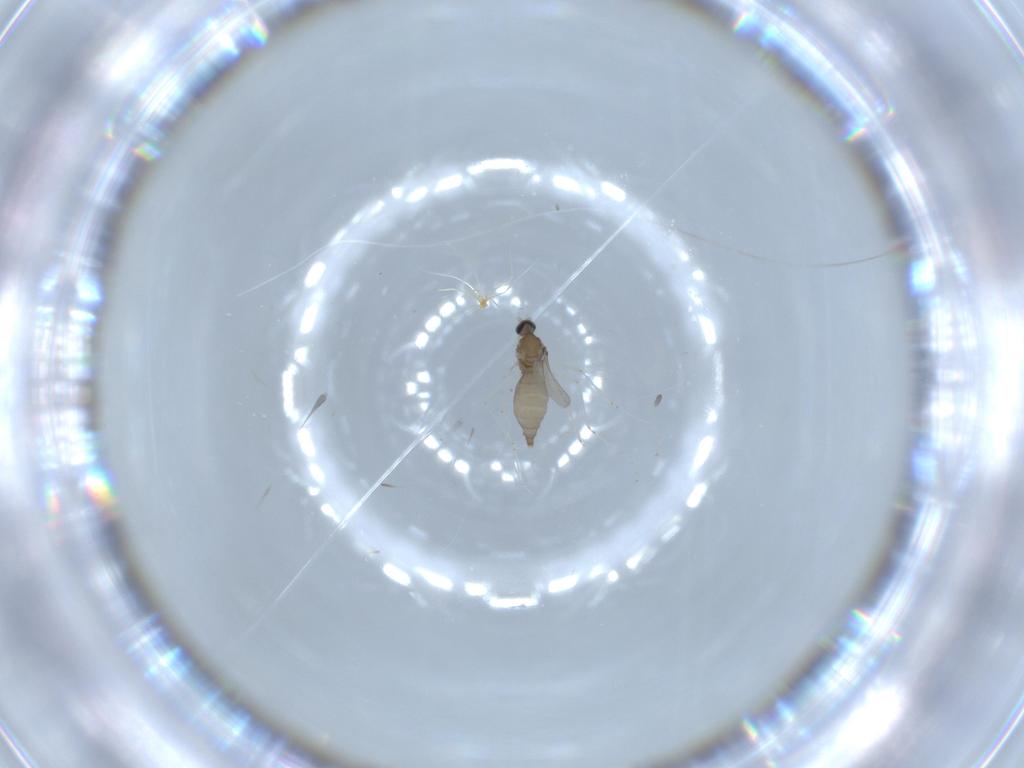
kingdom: Animalia
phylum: Arthropoda
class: Insecta
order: Diptera
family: Cecidomyiidae
